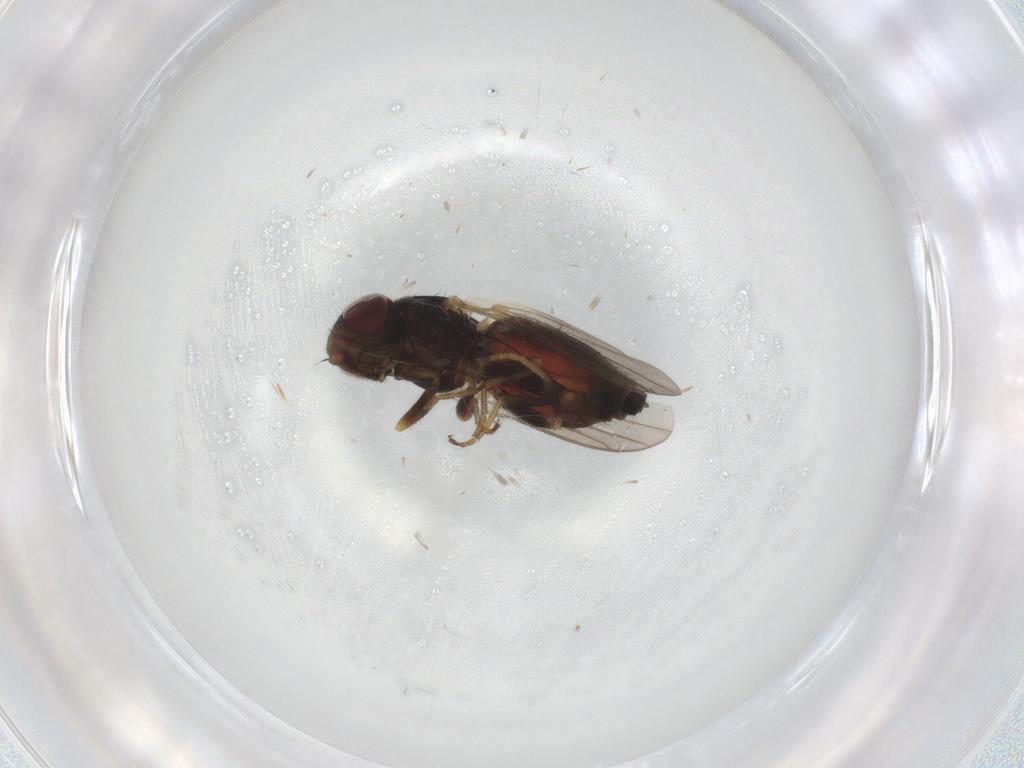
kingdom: Animalia
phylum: Arthropoda
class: Insecta
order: Diptera
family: Chloropidae
